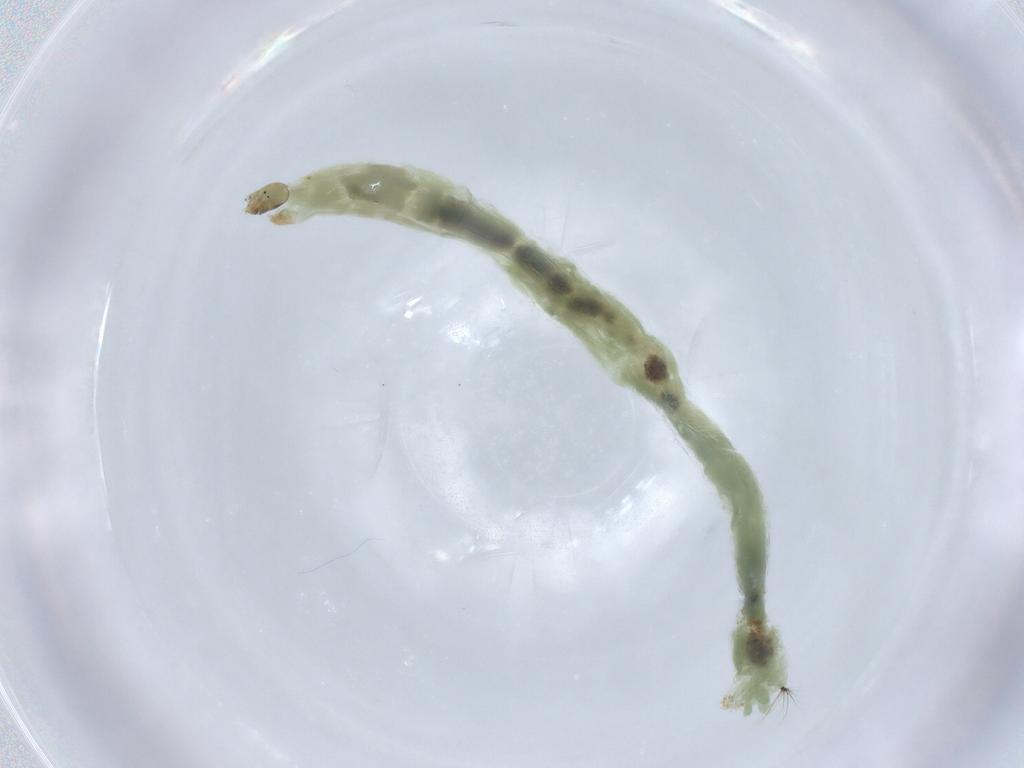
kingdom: Animalia
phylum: Arthropoda
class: Insecta
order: Diptera
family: Chironomidae
